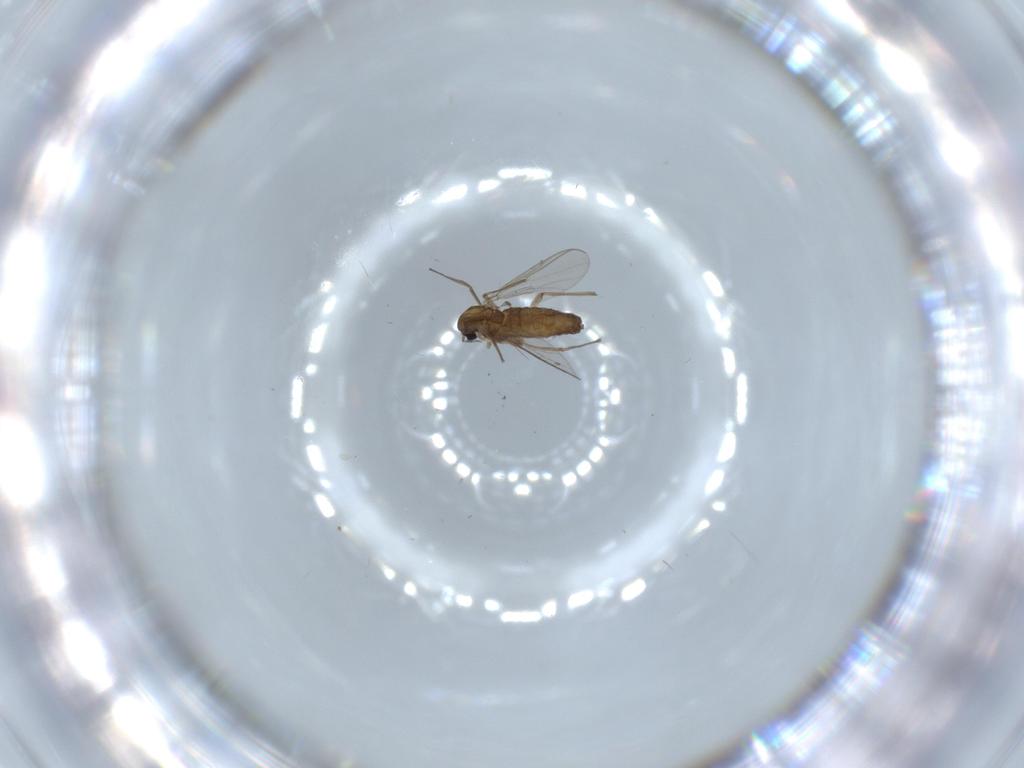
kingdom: Animalia
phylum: Arthropoda
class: Insecta
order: Diptera
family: Chironomidae
